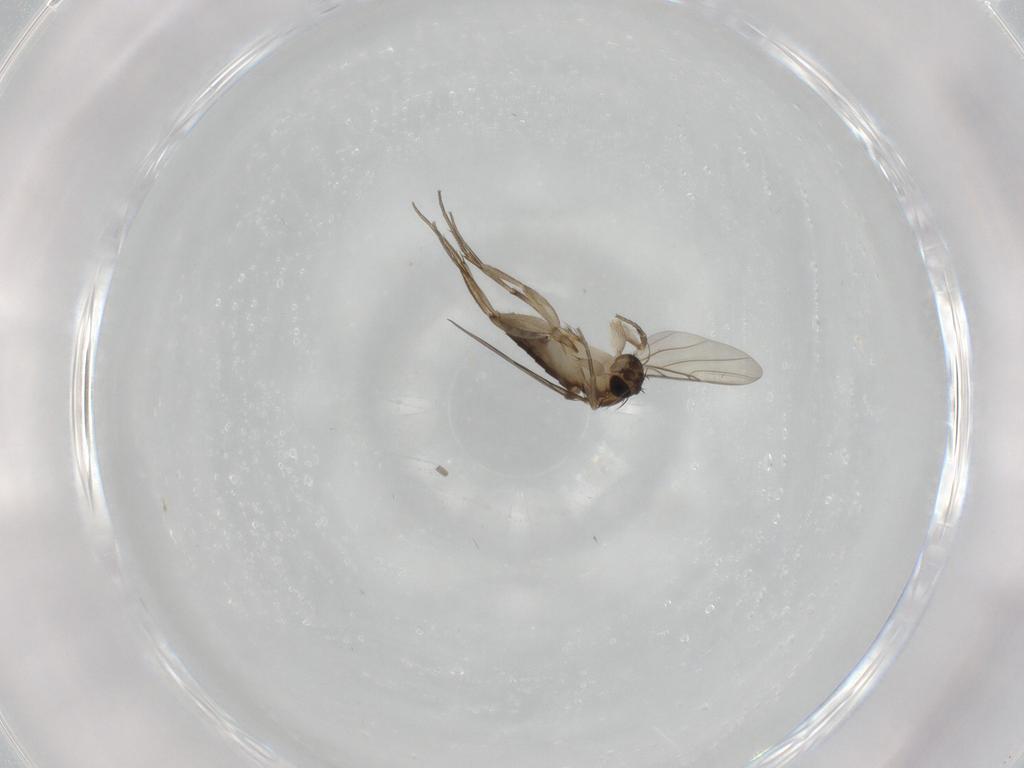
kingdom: Animalia
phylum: Arthropoda
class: Insecta
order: Diptera
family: Phoridae
